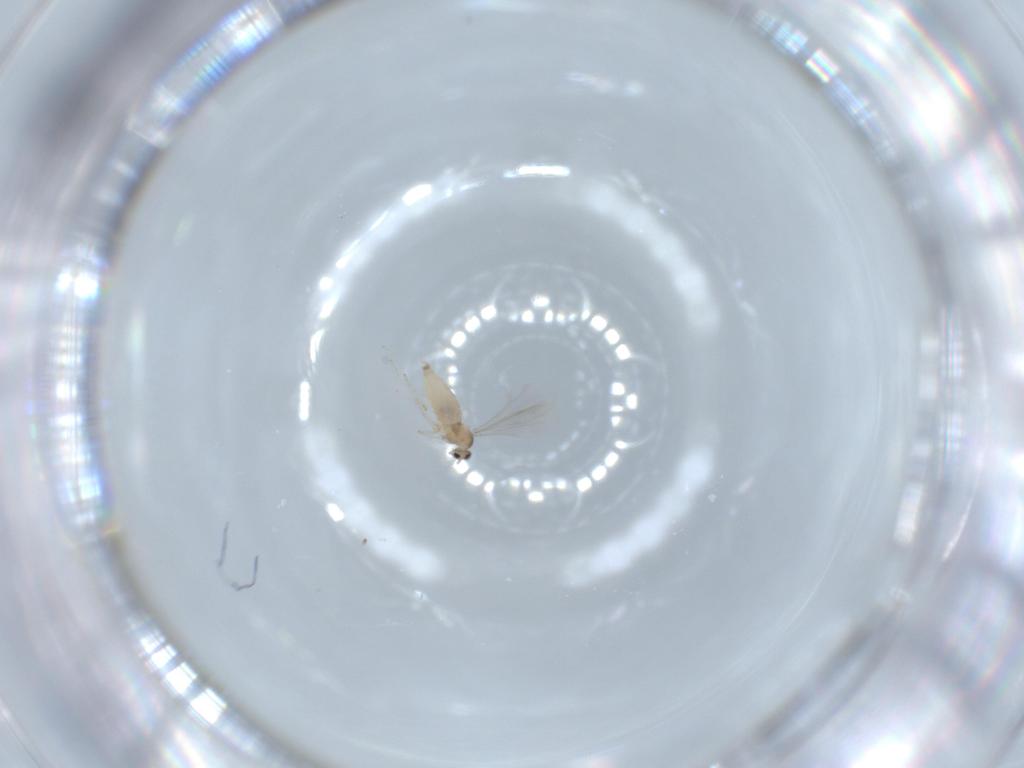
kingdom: Animalia
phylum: Arthropoda
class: Insecta
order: Diptera
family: Cecidomyiidae
